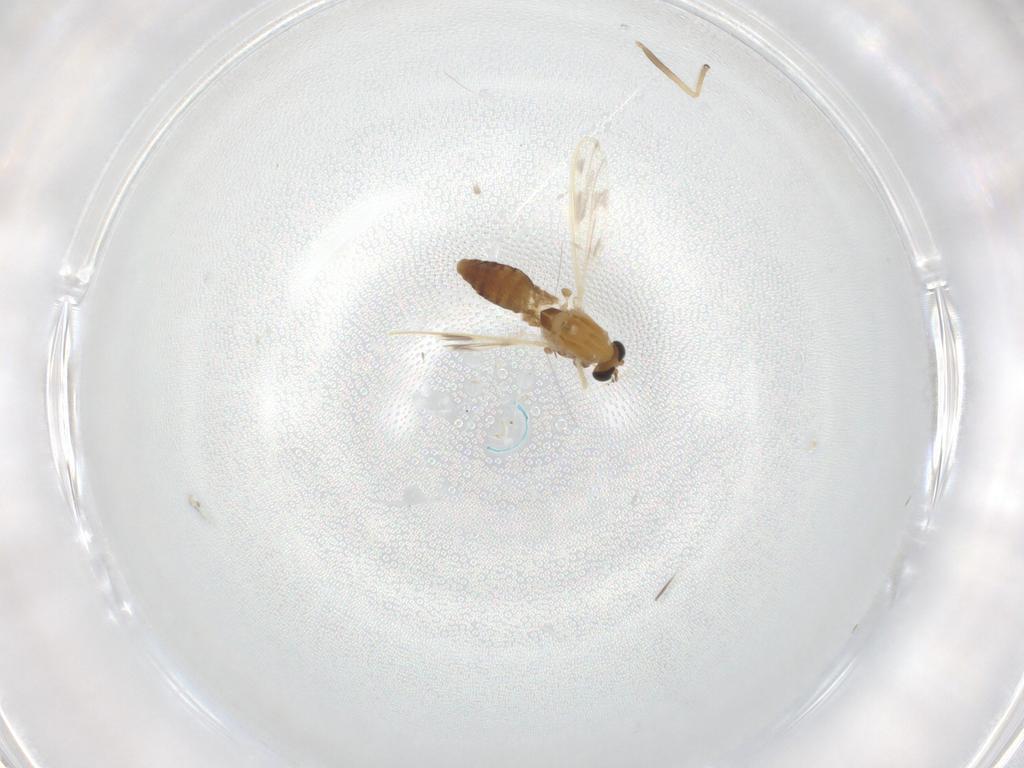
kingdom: Animalia
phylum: Arthropoda
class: Insecta
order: Diptera
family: Chironomidae
